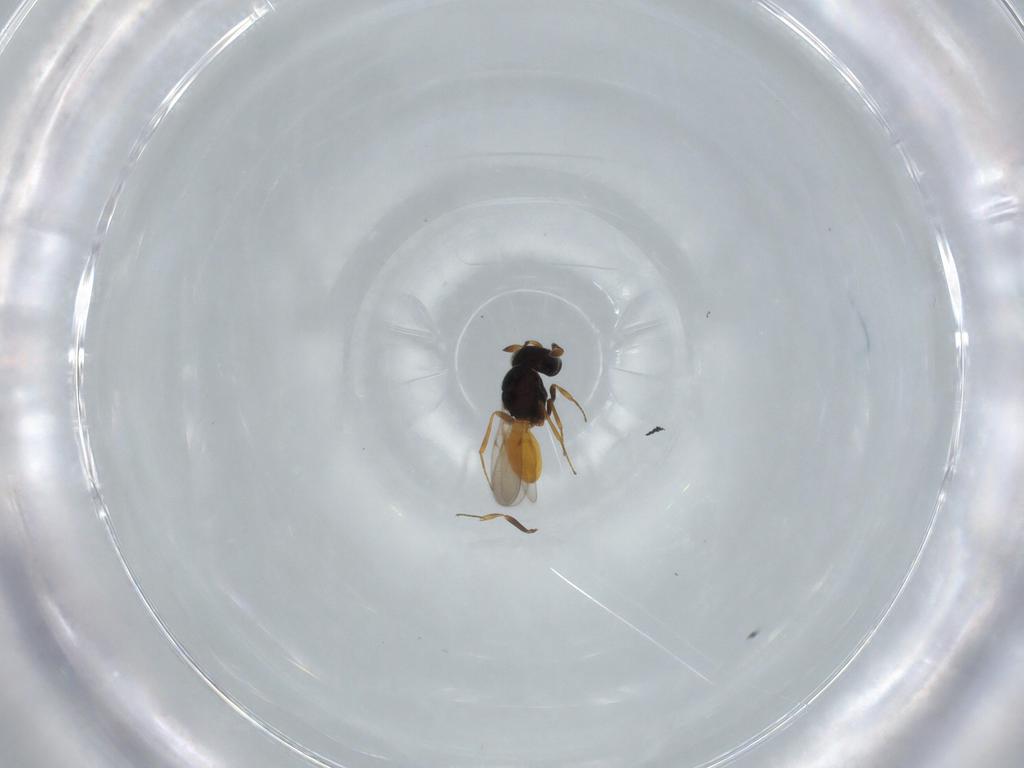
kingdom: Animalia
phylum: Arthropoda
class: Insecta
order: Hymenoptera
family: Scelionidae
